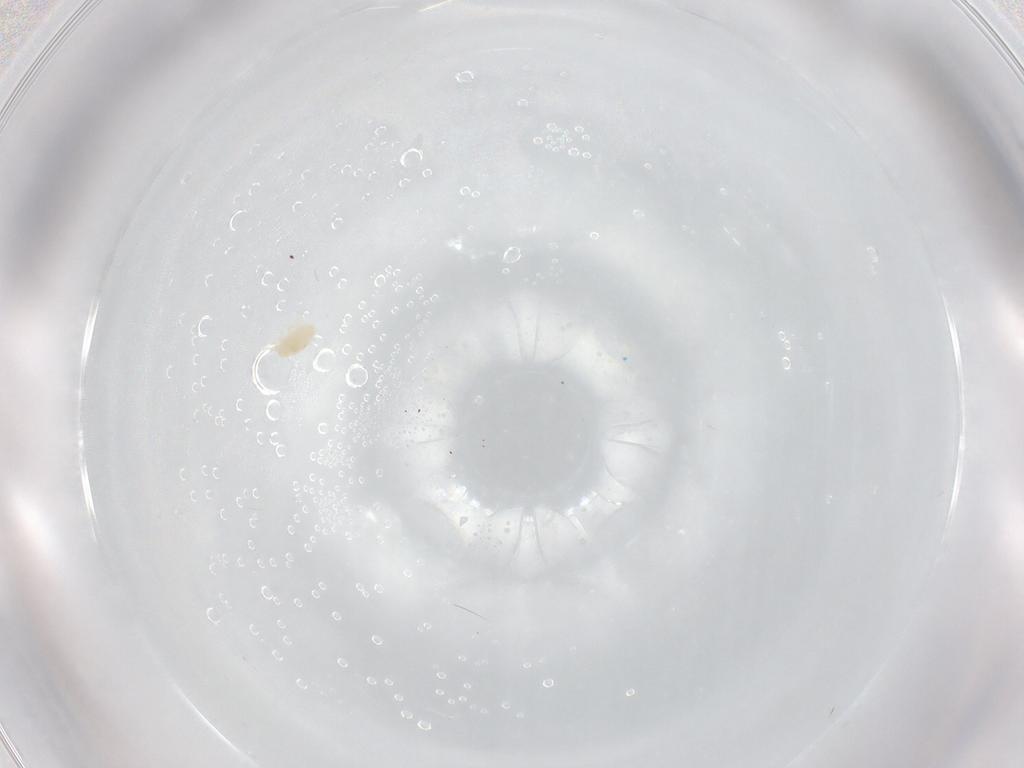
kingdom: Animalia
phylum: Arthropoda
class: Arachnida
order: Trombidiformes
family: Eupodidae
